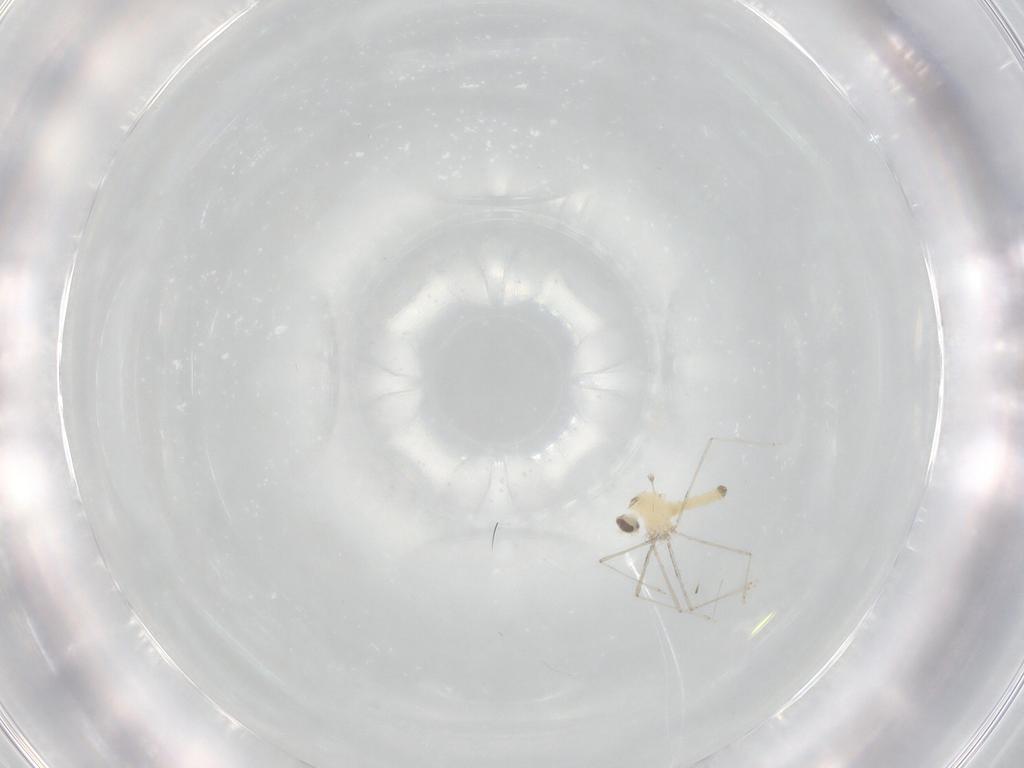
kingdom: Animalia
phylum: Arthropoda
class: Insecta
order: Diptera
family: Cecidomyiidae
